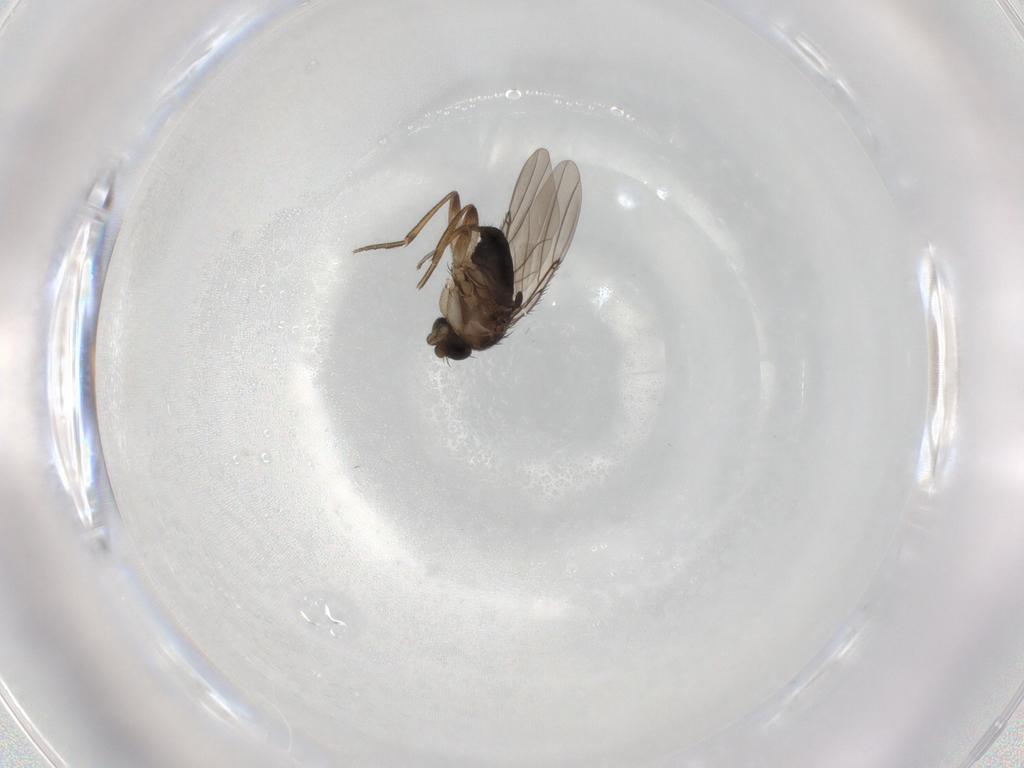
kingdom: Animalia
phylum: Arthropoda
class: Insecta
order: Diptera
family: Phoridae
